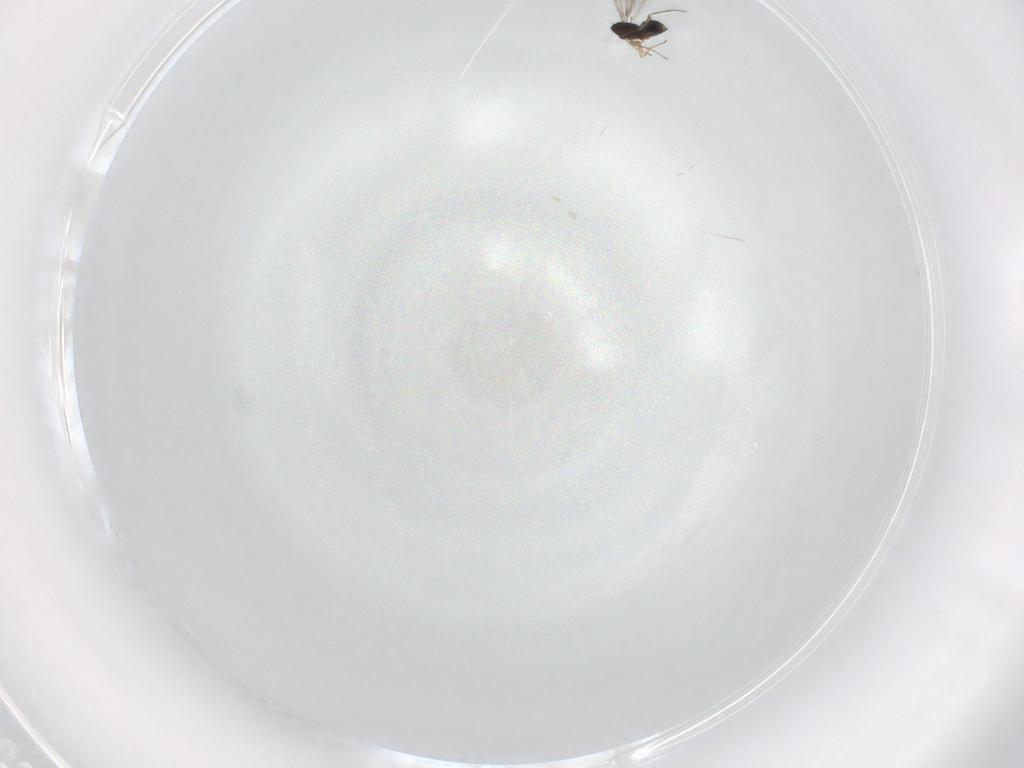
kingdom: Animalia
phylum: Arthropoda
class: Insecta
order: Hymenoptera
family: Mymaridae
